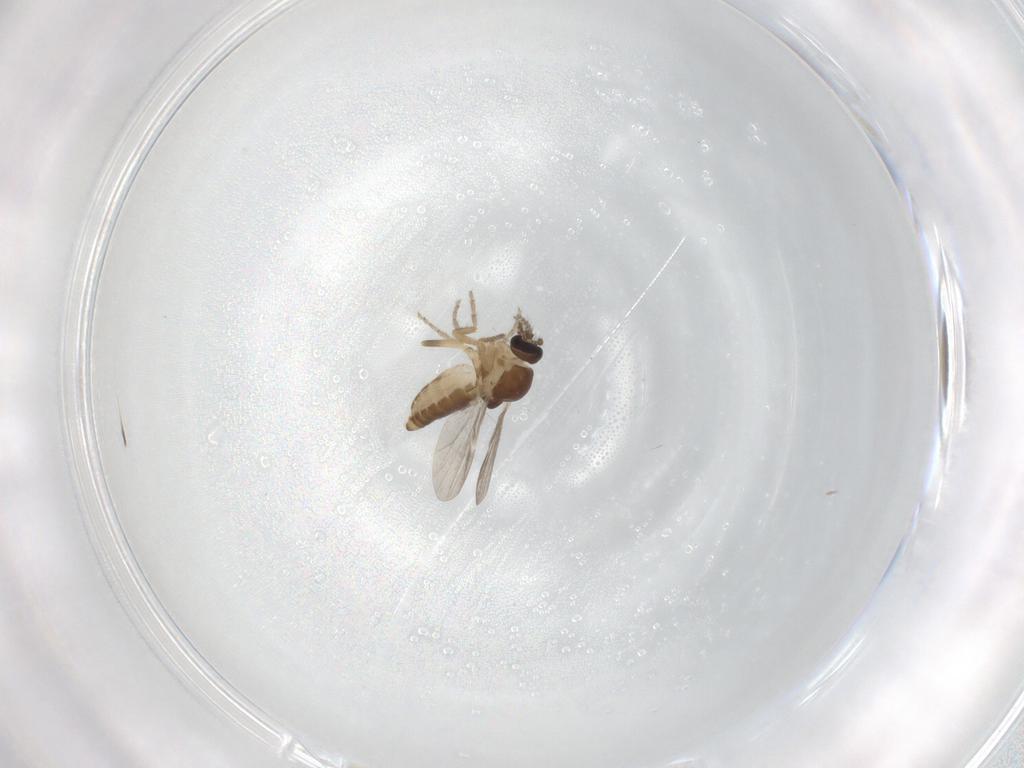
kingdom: Animalia
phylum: Arthropoda
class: Insecta
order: Diptera
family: Ceratopogonidae
